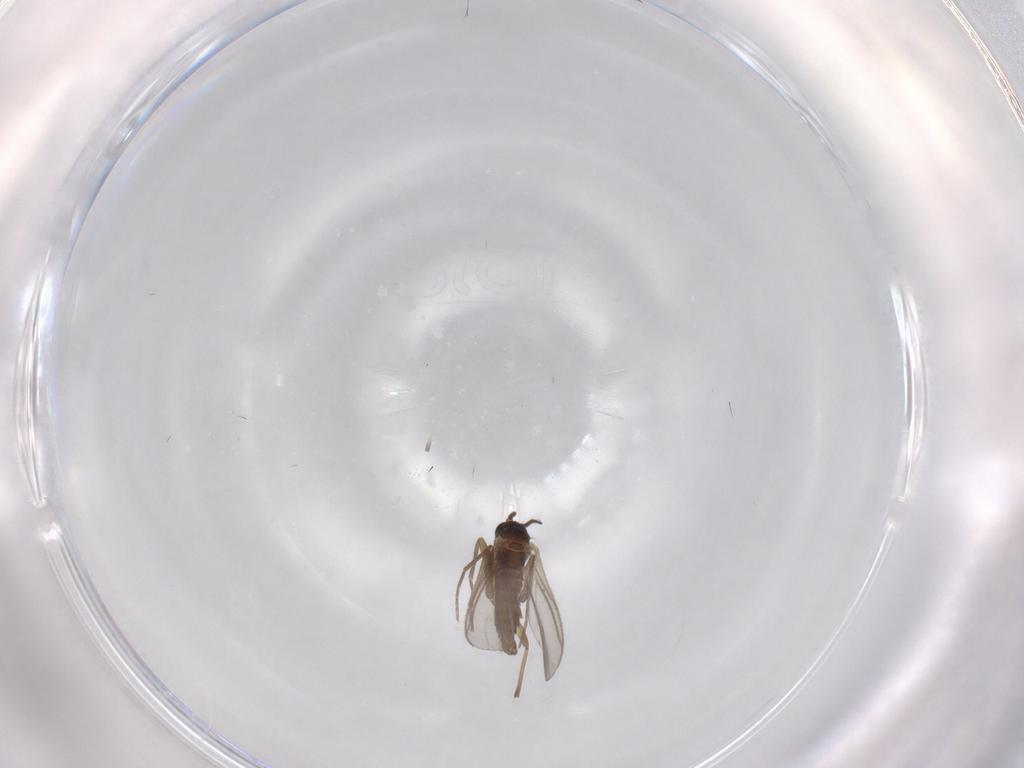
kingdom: Animalia
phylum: Arthropoda
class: Insecta
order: Diptera
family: Sciaridae
